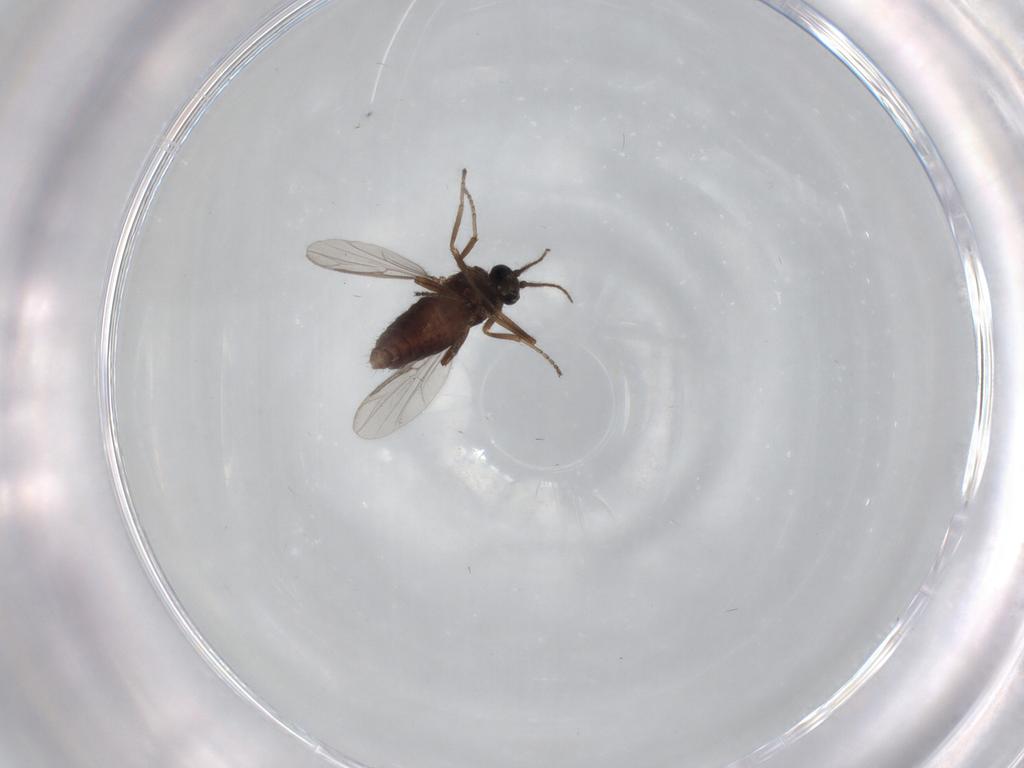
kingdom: Animalia
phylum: Arthropoda
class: Insecta
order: Diptera
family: Ceratopogonidae
